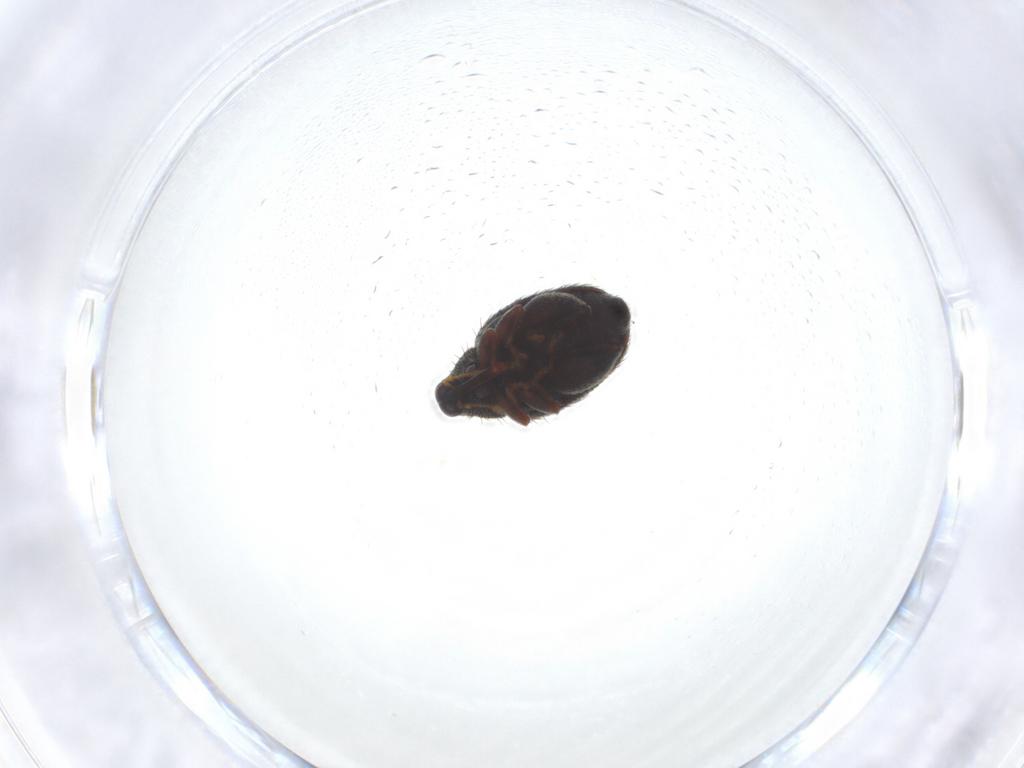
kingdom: Animalia
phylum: Arthropoda
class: Insecta
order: Coleoptera
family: Curculionidae
